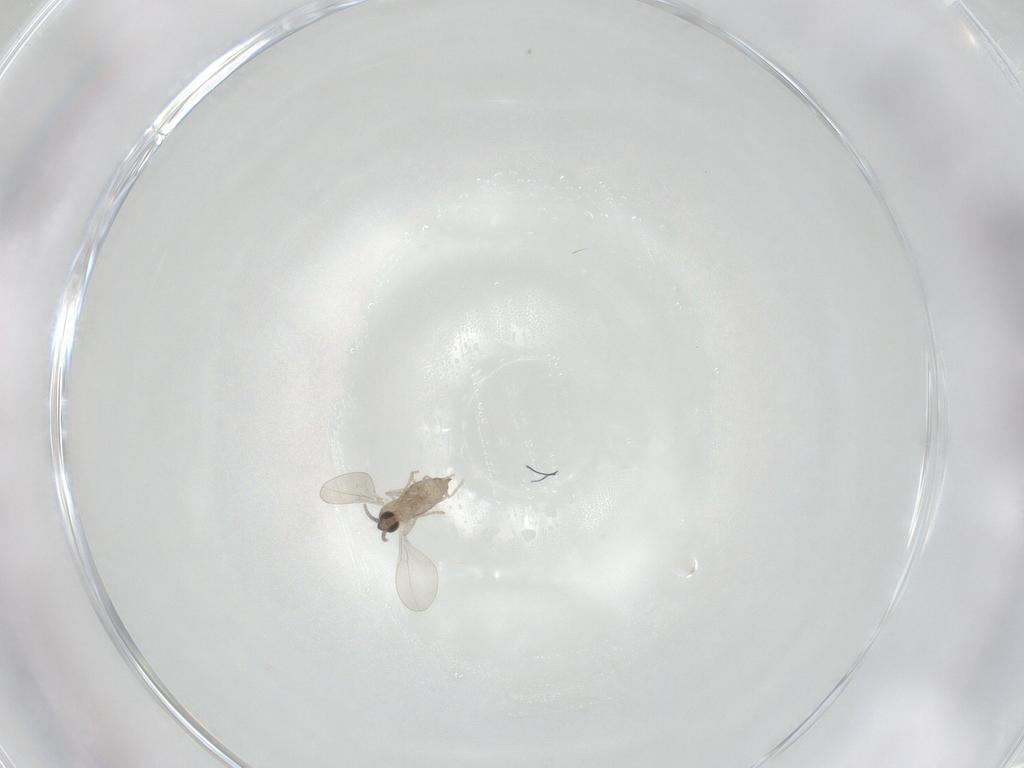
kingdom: Animalia
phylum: Arthropoda
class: Insecta
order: Diptera
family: Cecidomyiidae
